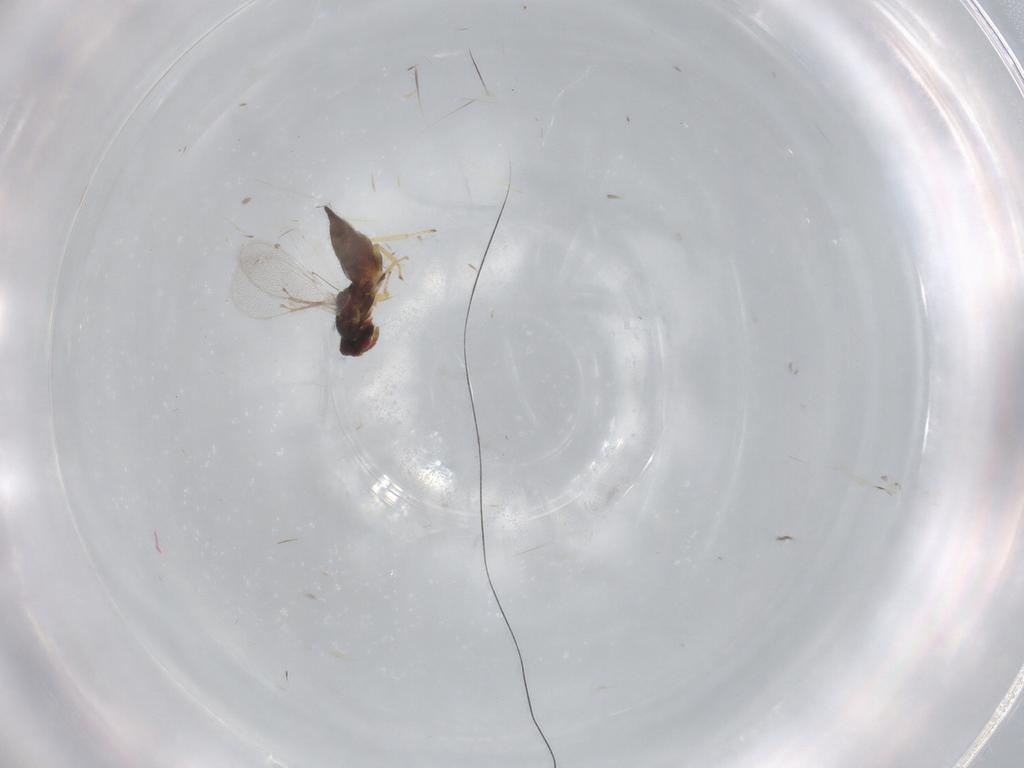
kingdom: Animalia
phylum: Arthropoda
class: Insecta
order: Hymenoptera
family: Eulophidae
